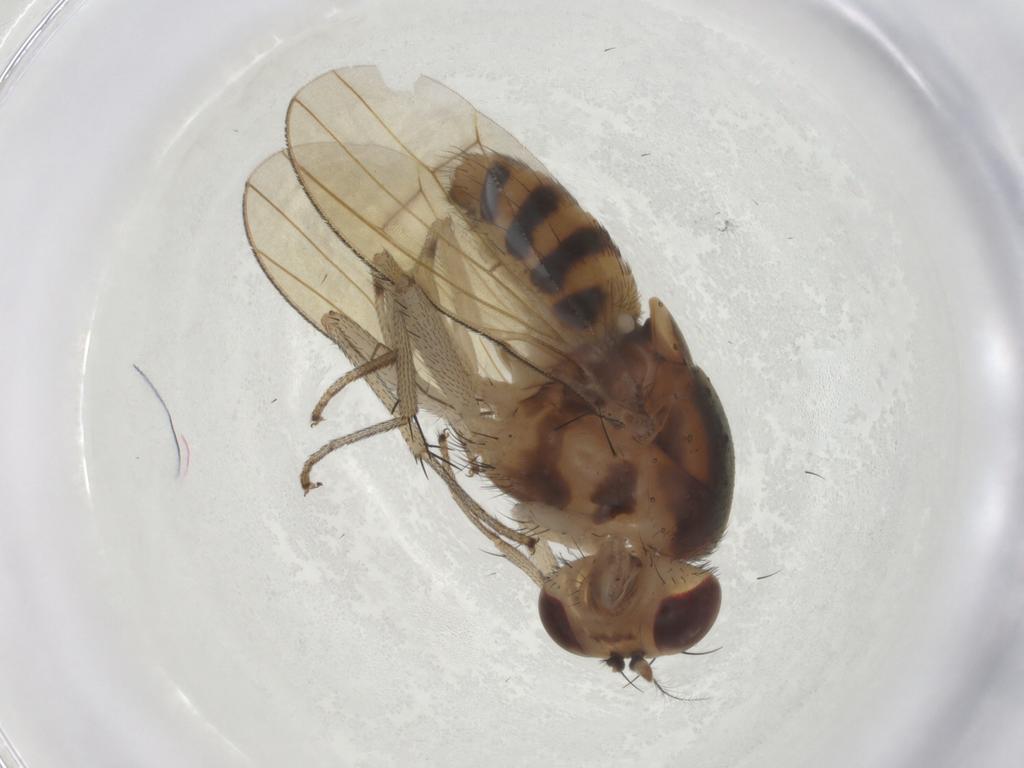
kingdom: Animalia
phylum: Arthropoda
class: Insecta
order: Diptera
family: Lauxaniidae
